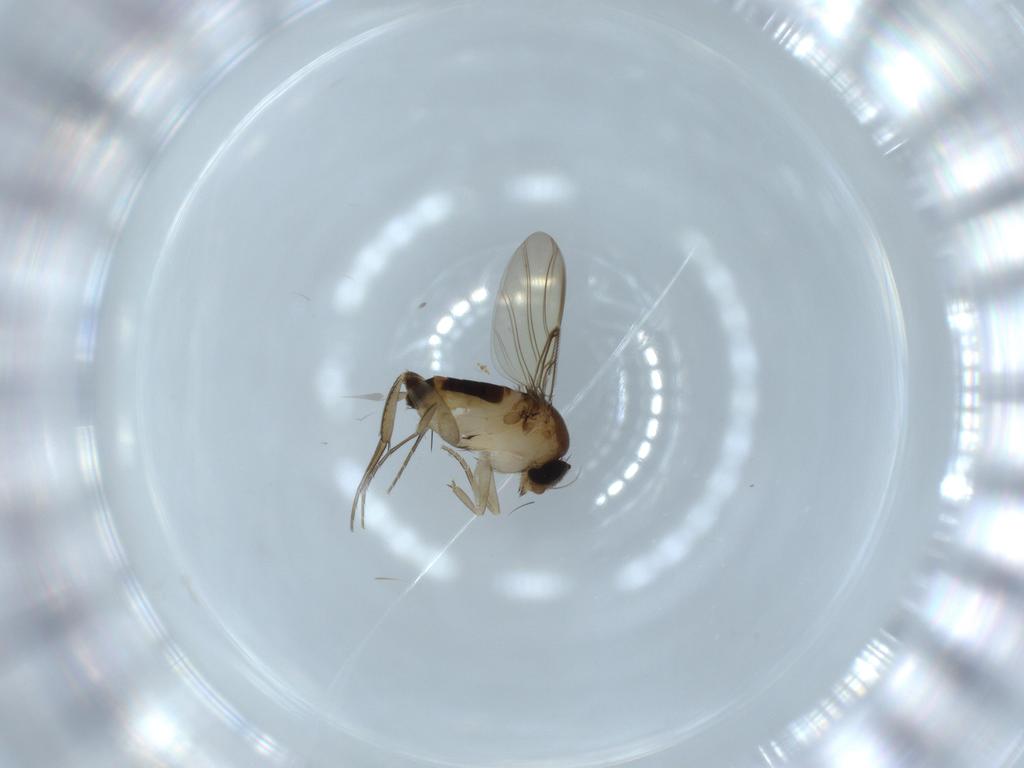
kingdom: Animalia
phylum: Arthropoda
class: Insecta
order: Diptera
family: Phoridae
